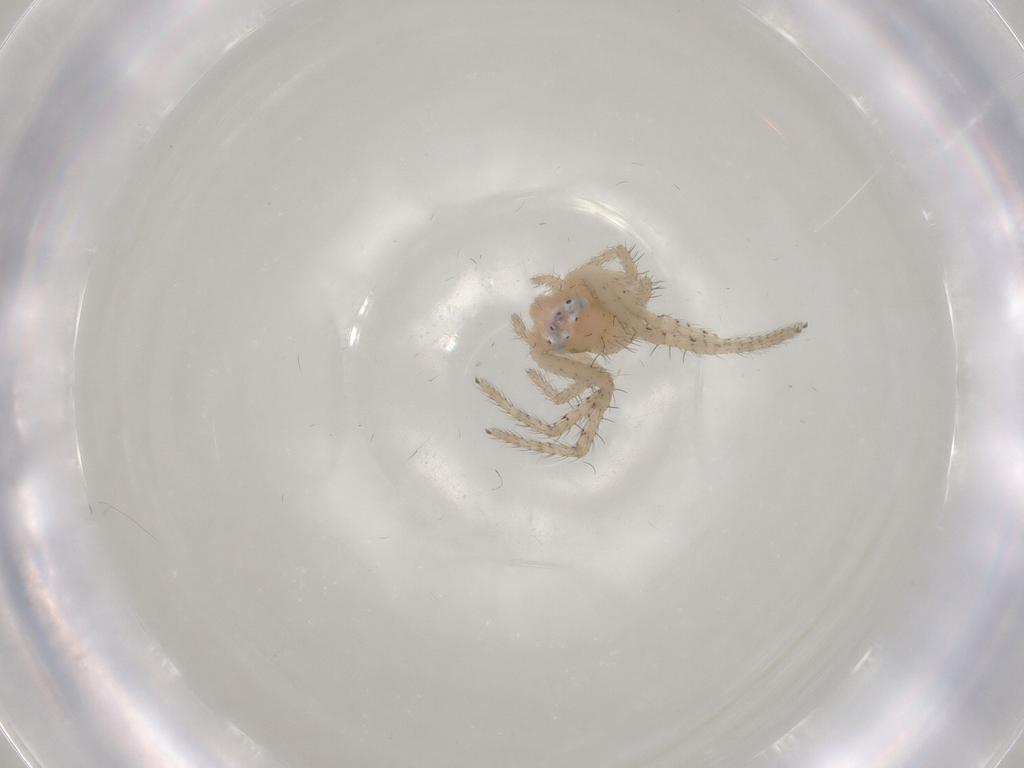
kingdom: Animalia
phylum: Arthropoda
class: Arachnida
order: Araneae
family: Thomisidae
